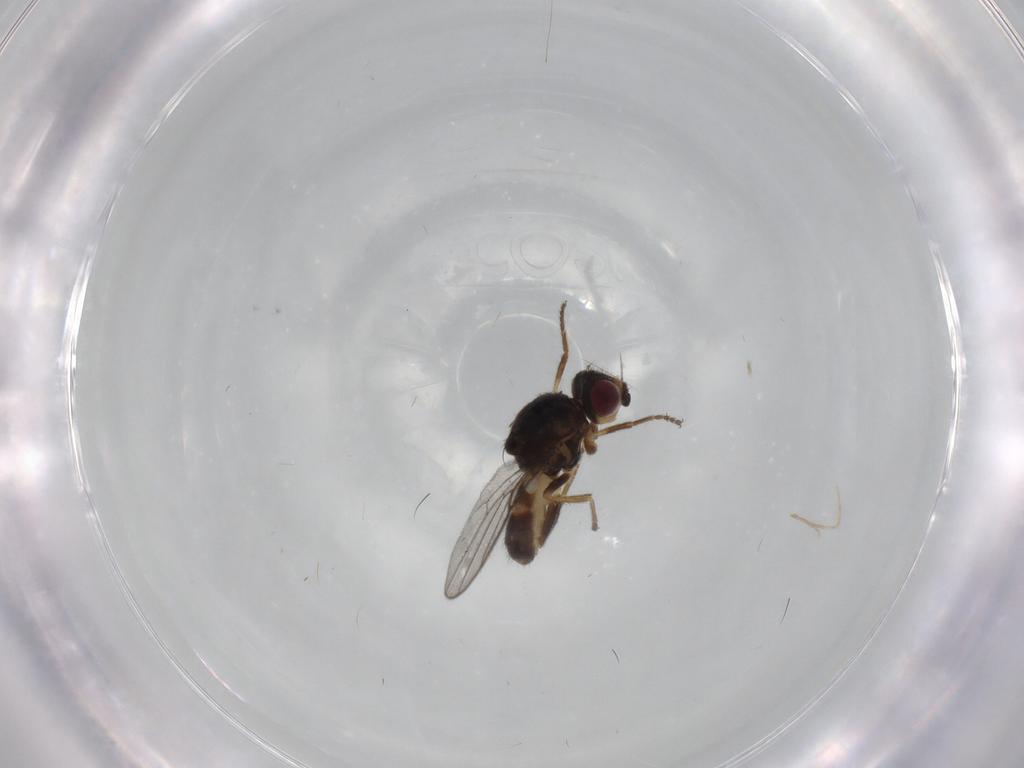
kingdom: Animalia
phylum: Arthropoda
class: Insecta
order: Diptera
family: Chloropidae
